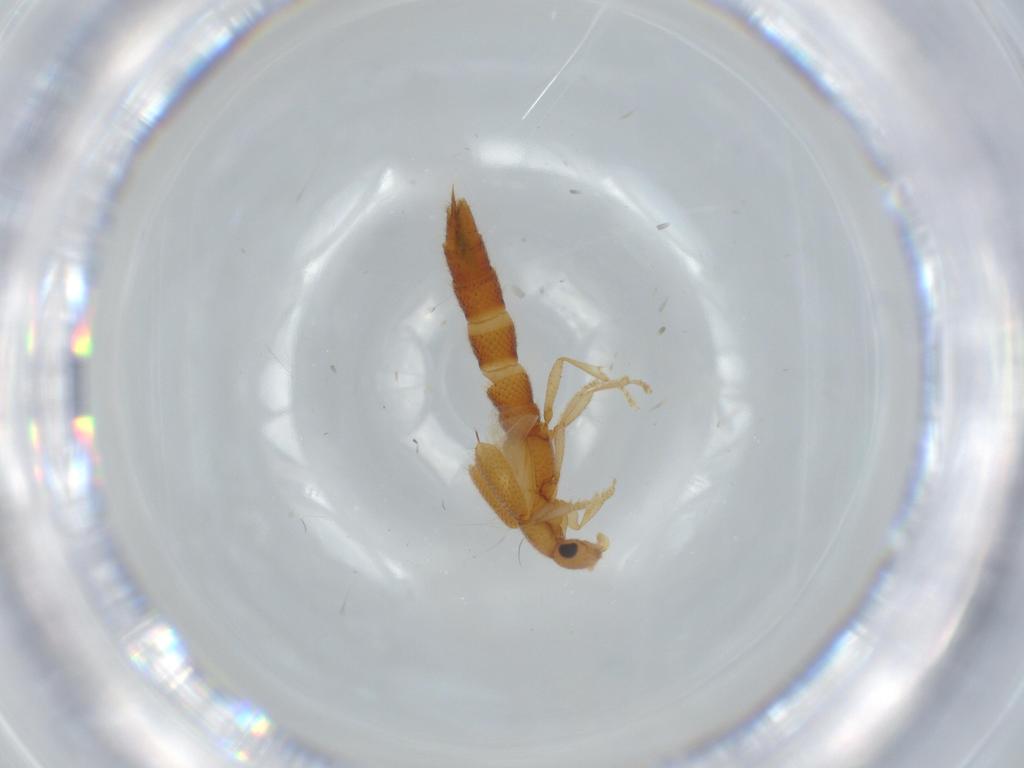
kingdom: Animalia
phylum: Arthropoda
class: Insecta
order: Coleoptera
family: Staphylinidae
